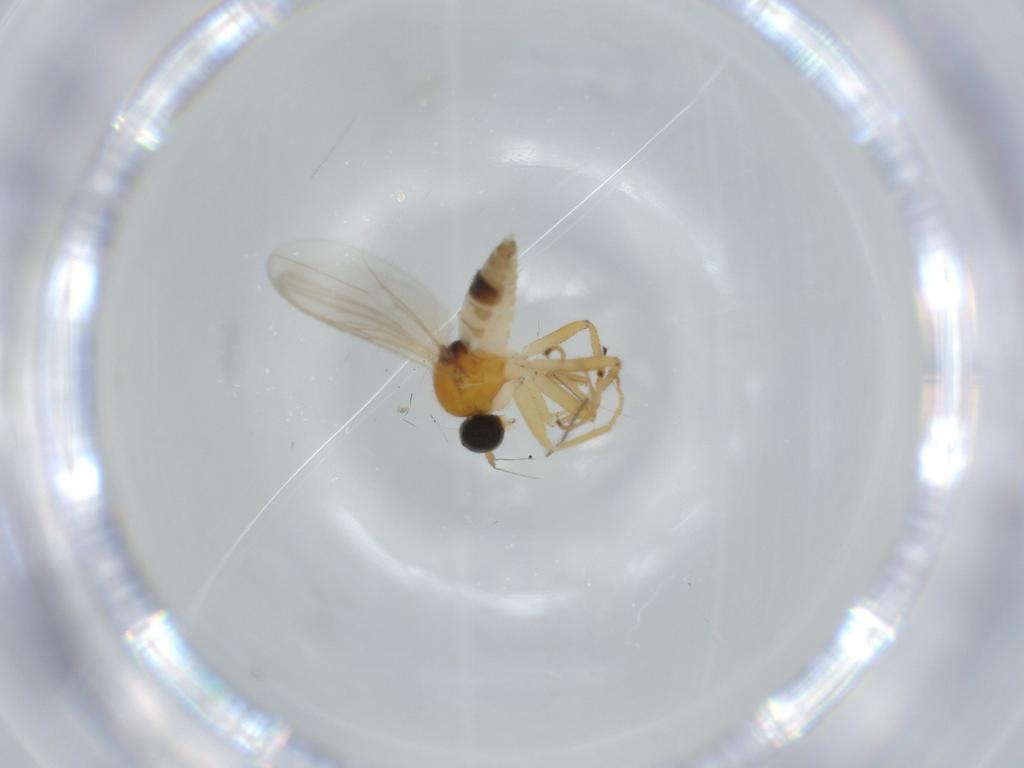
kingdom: Animalia
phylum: Arthropoda
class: Insecta
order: Diptera
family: Hybotidae
